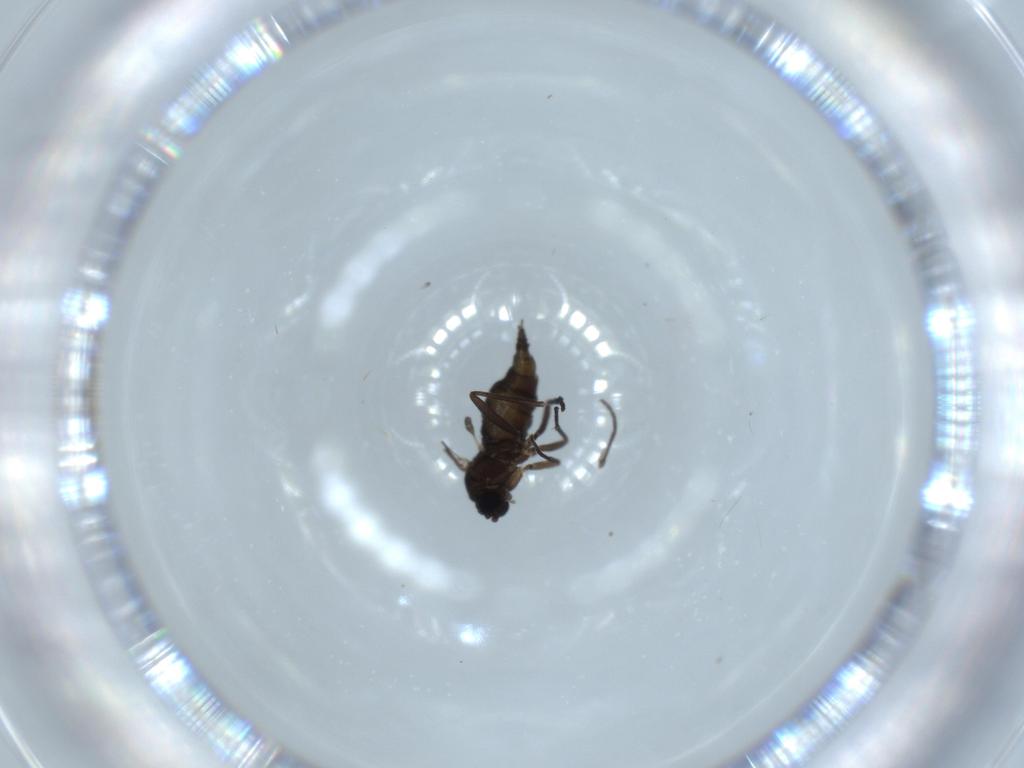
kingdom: Animalia
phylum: Arthropoda
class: Insecta
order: Diptera
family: Sciaridae
